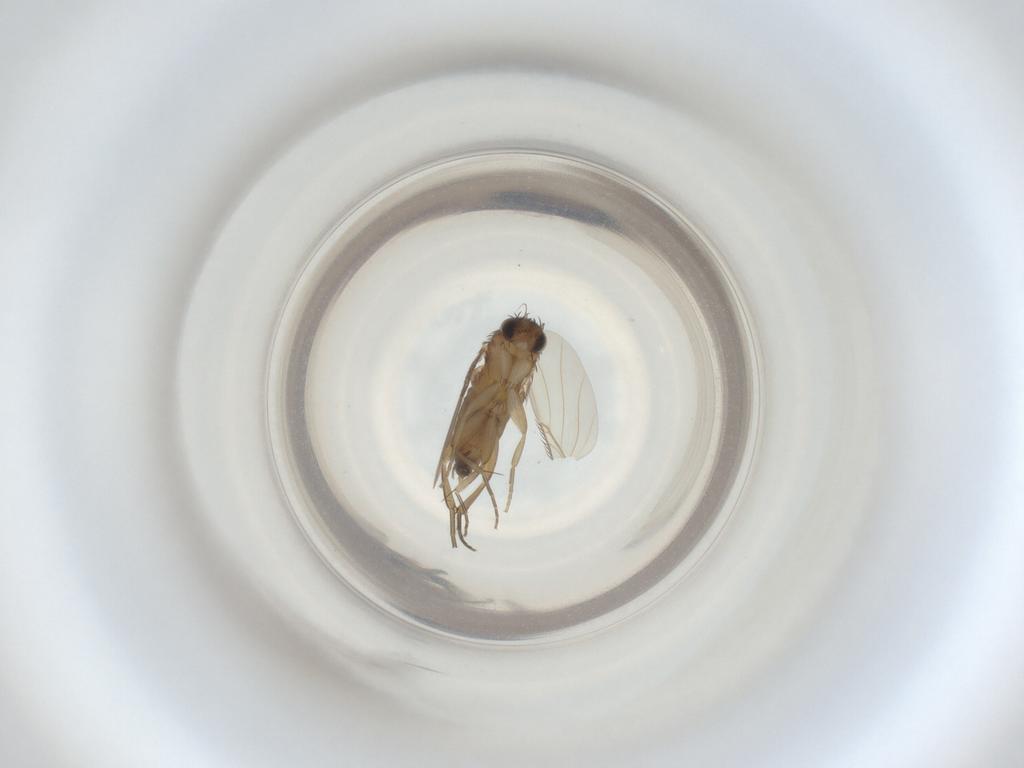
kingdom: Animalia
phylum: Arthropoda
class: Insecta
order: Diptera
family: Phoridae
